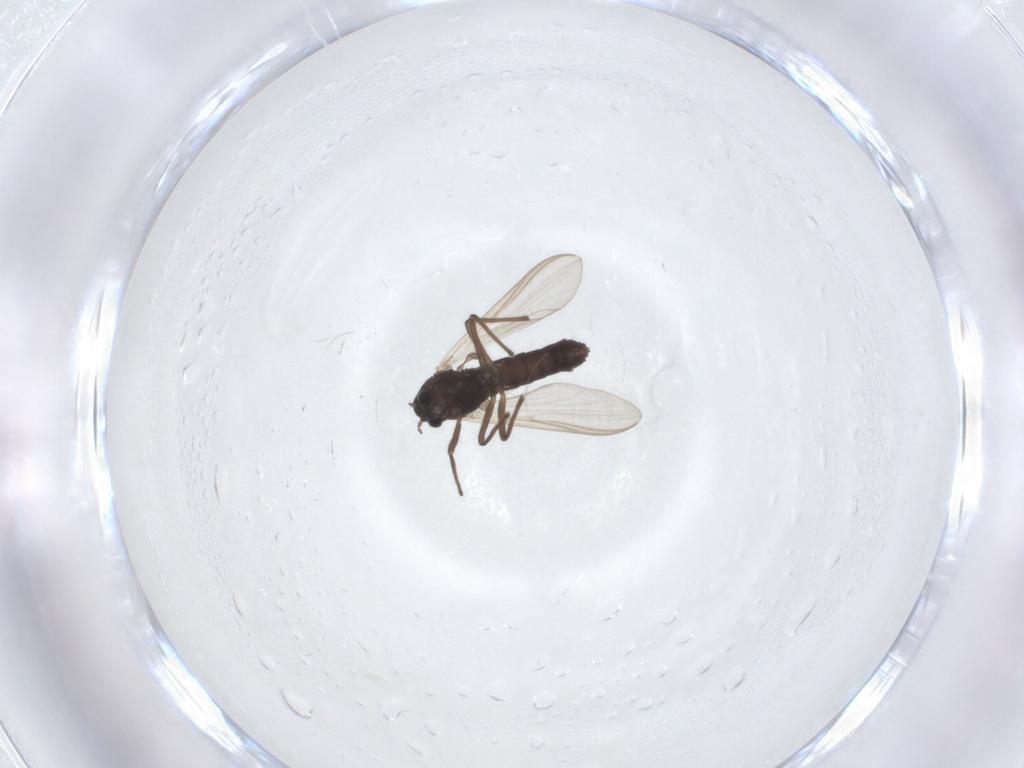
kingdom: Animalia
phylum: Arthropoda
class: Insecta
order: Diptera
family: Chironomidae
